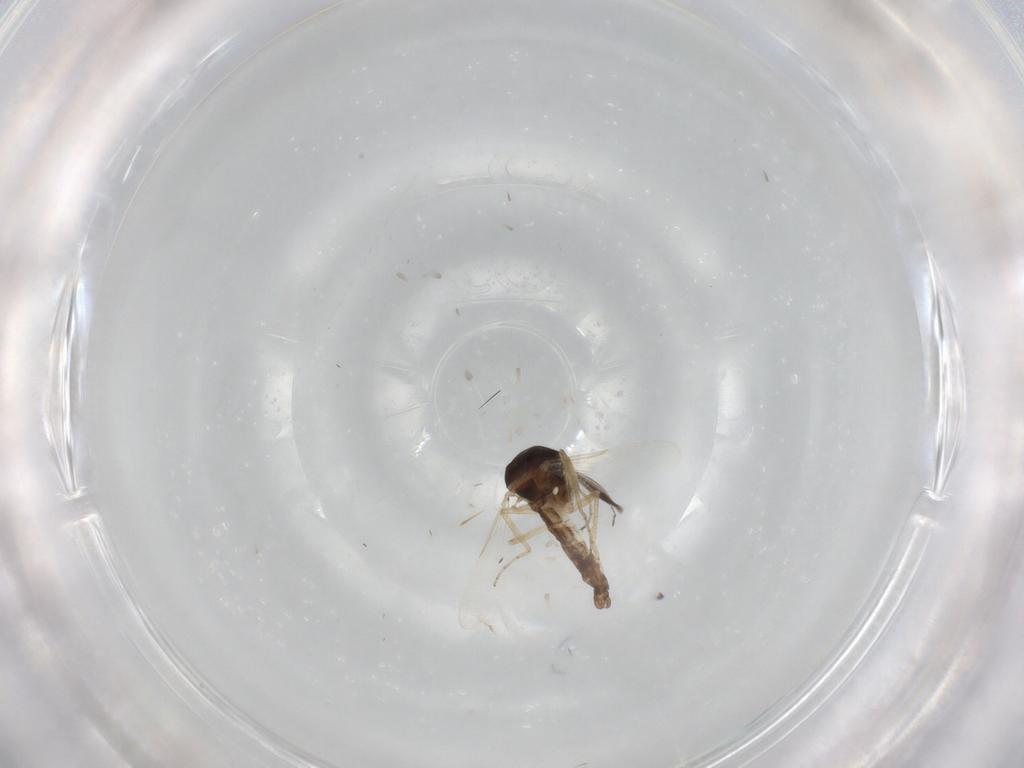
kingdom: Animalia
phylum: Arthropoda
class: Insecta
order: Diptera
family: Ceratopogonidae
